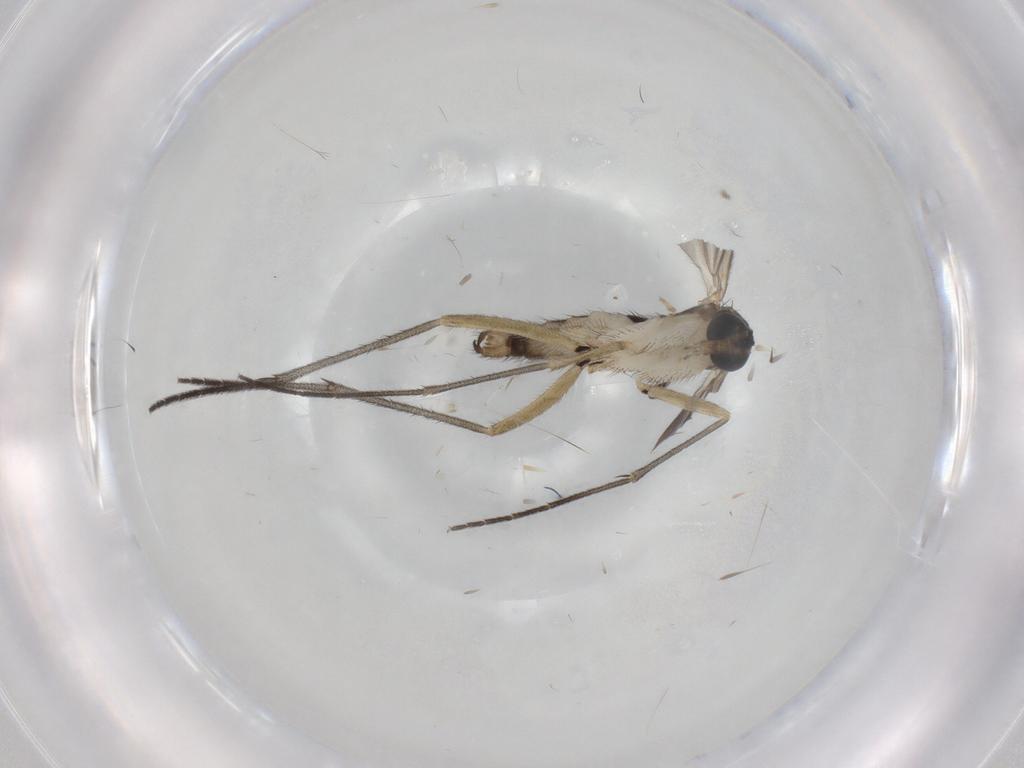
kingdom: Animalia
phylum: Arthropoda
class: Insecta
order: Diptera
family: Sciaridae
